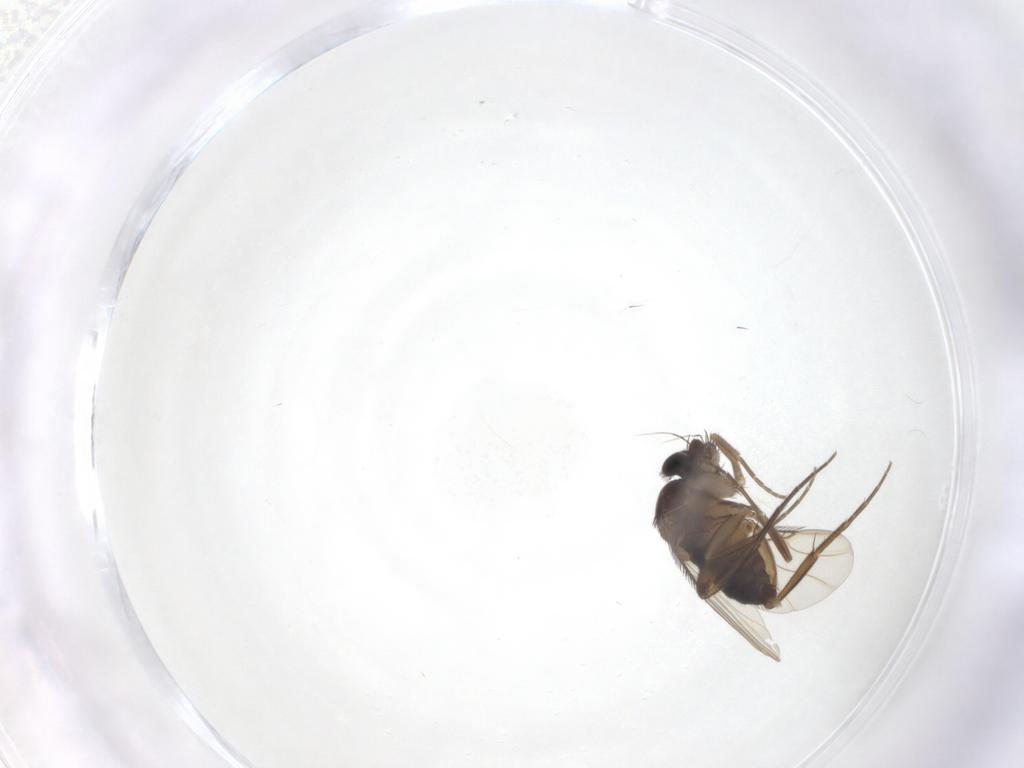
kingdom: Animalia
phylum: Arthropoda
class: Insecta
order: Diptera
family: Phoridae
